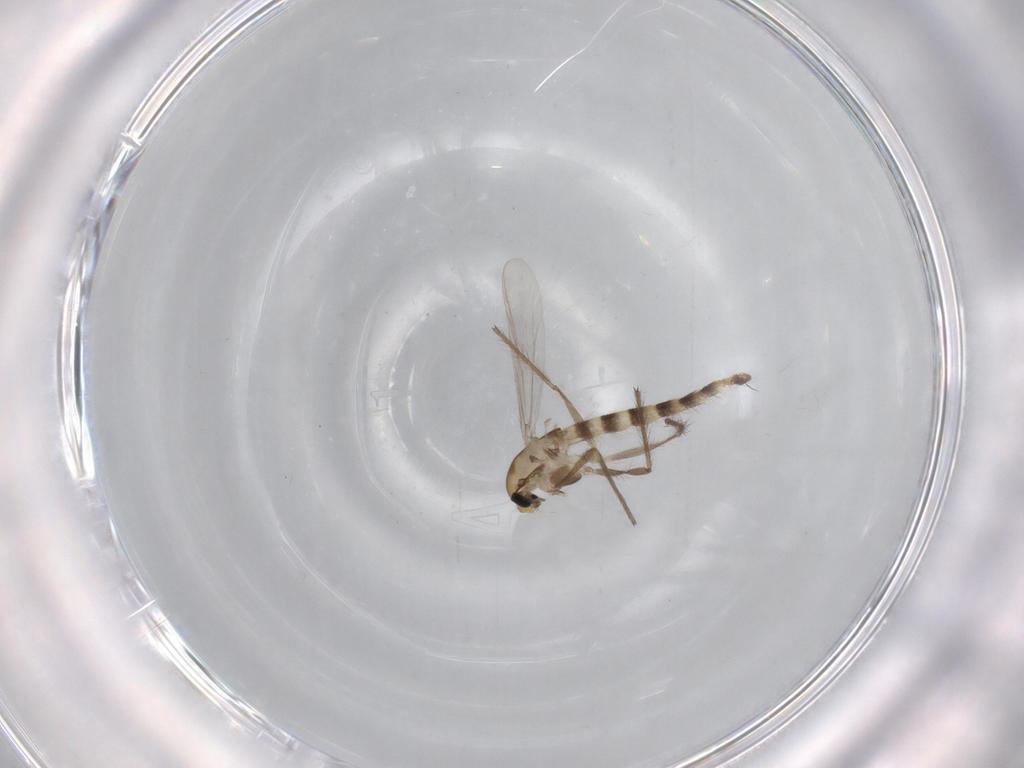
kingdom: Animalia
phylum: Arthropoda
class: Insecta
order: Diptera
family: Chironomidae
